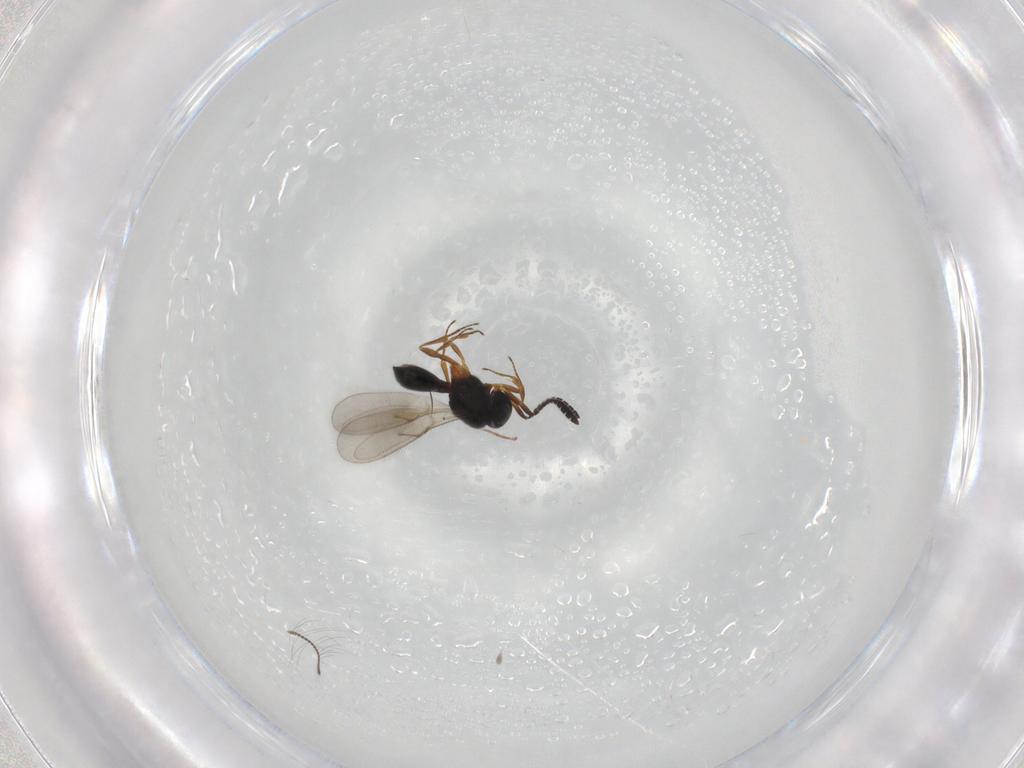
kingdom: Animalia
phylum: Arthropoda
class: Insecta
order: Hymenoptera
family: Scelionidae
